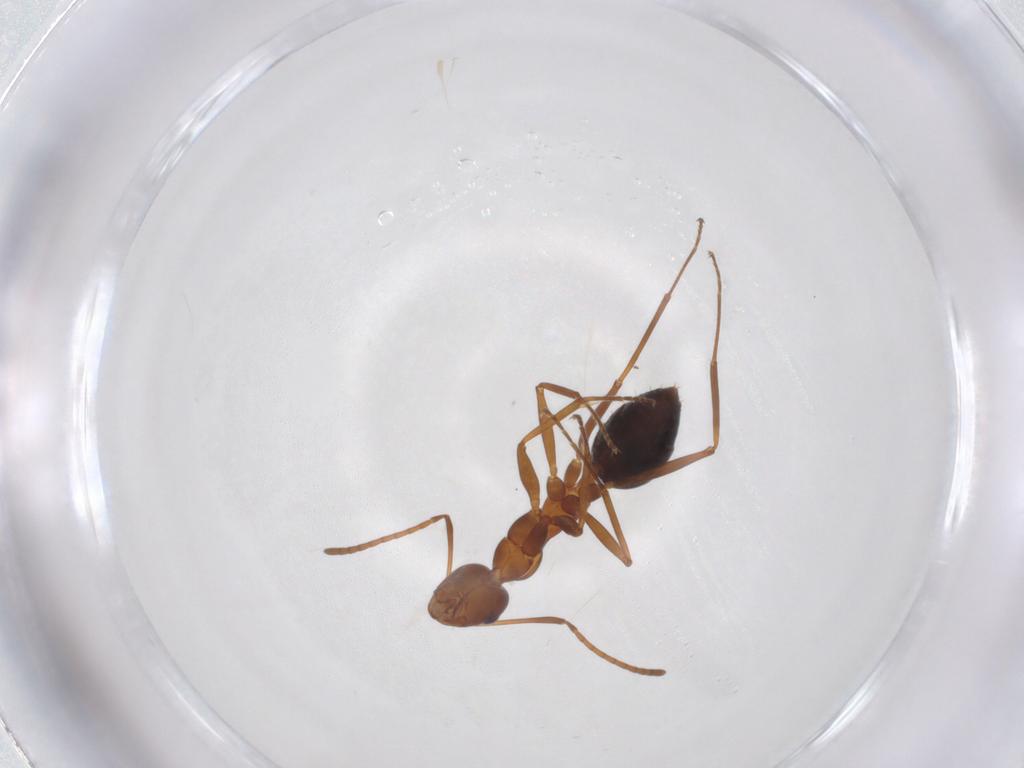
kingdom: Animalia
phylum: Arthropoda
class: Insecta
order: Hymenoptera
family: Formicidae
